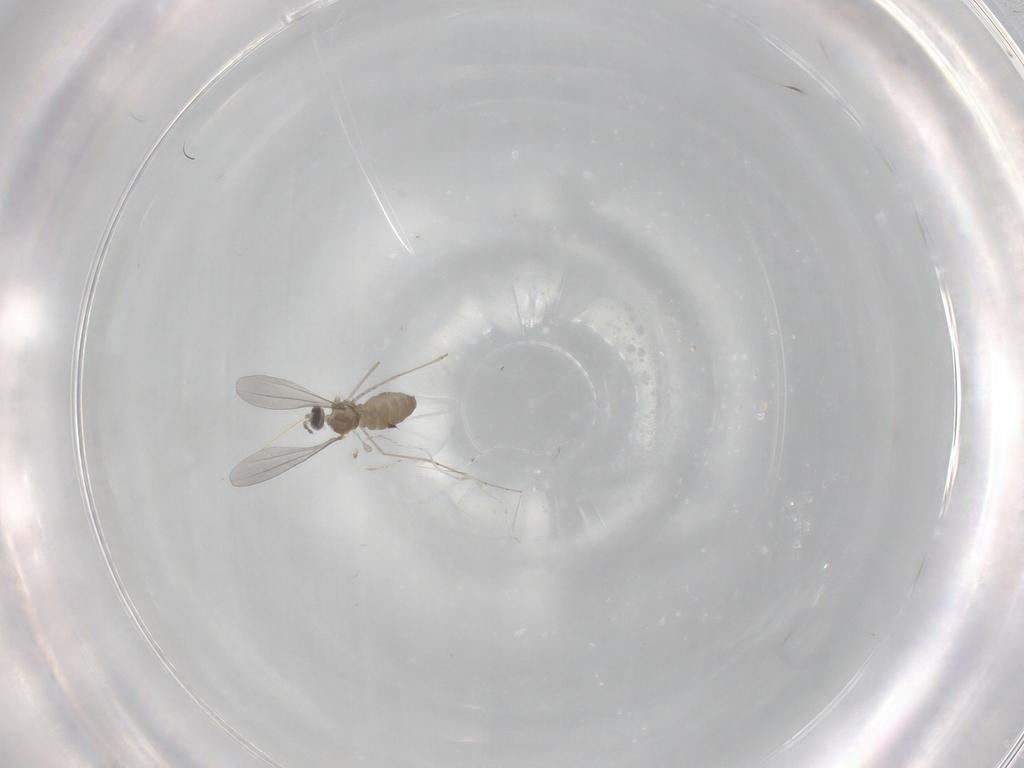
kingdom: Animalia
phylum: Arthropoda
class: Insecta
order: Diptera
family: Cecidomyiidae
